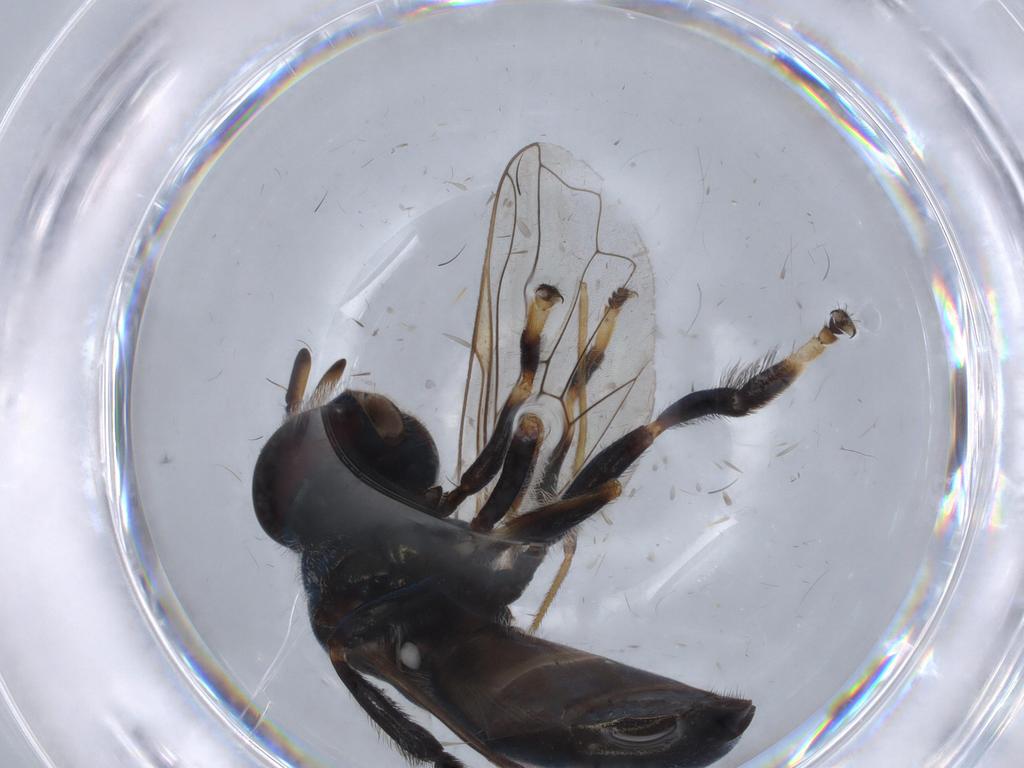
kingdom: Animalia
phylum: Arthropoda
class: Insecta
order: Diptera
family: Syrphidae
